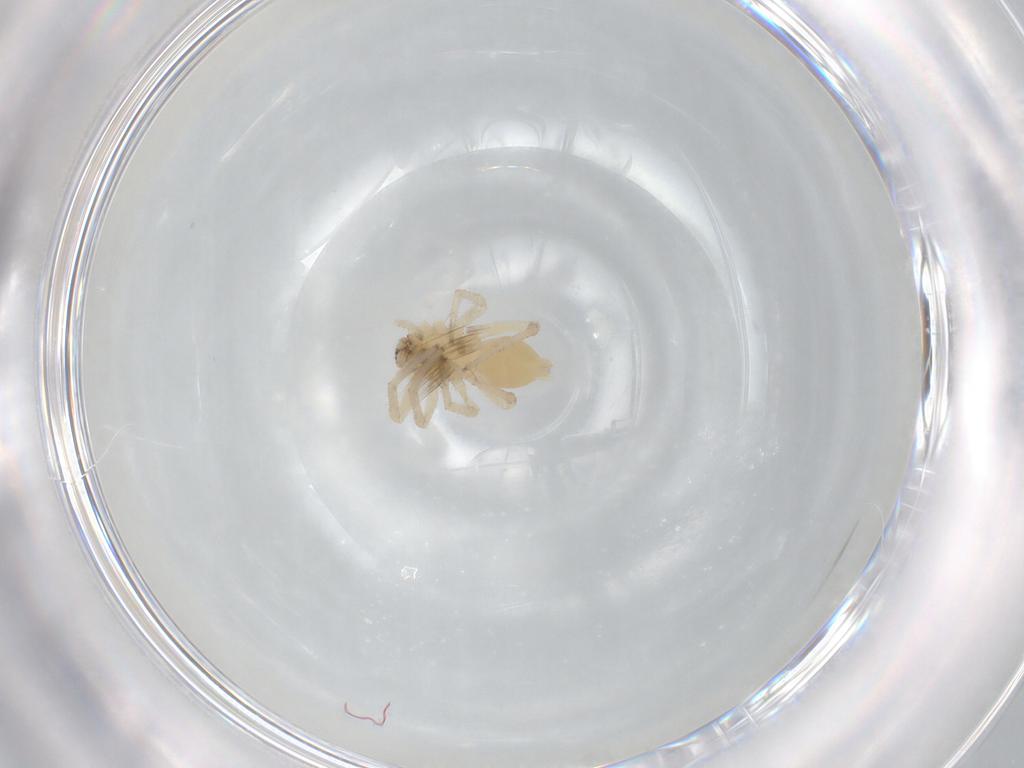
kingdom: Animalia
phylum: Arthropoda
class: Arachnida
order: Araneae
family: Anyphaenidae
